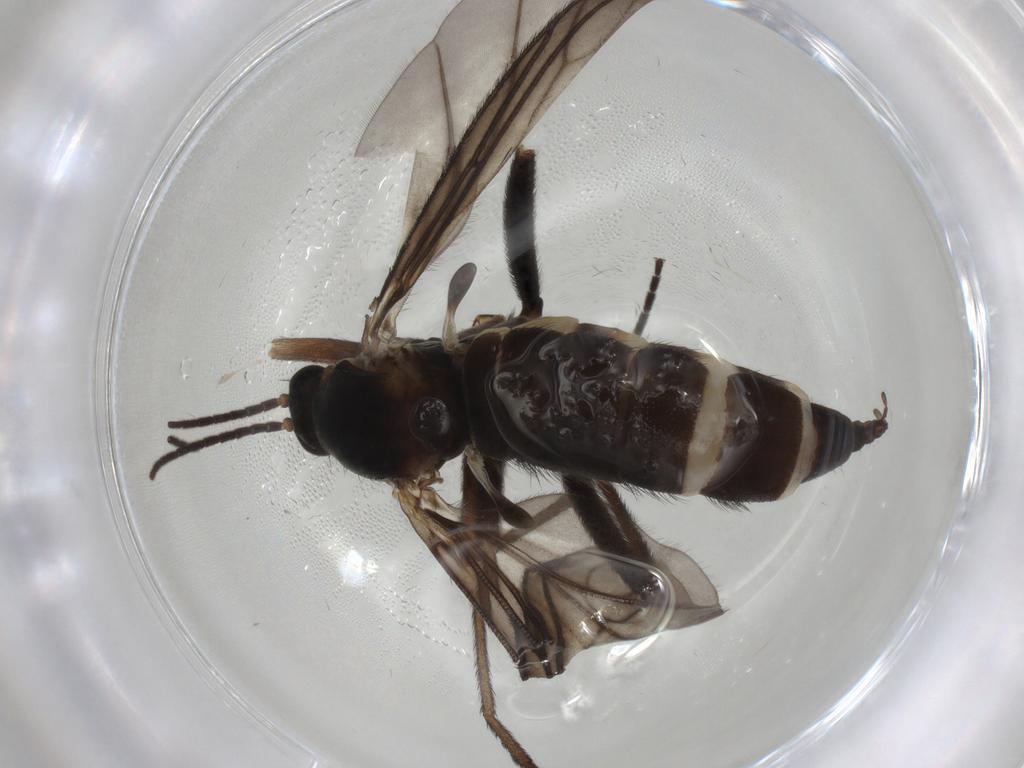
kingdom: Animalia
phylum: Arthropoda
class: Insecta
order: Diptera
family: Sciaridae
